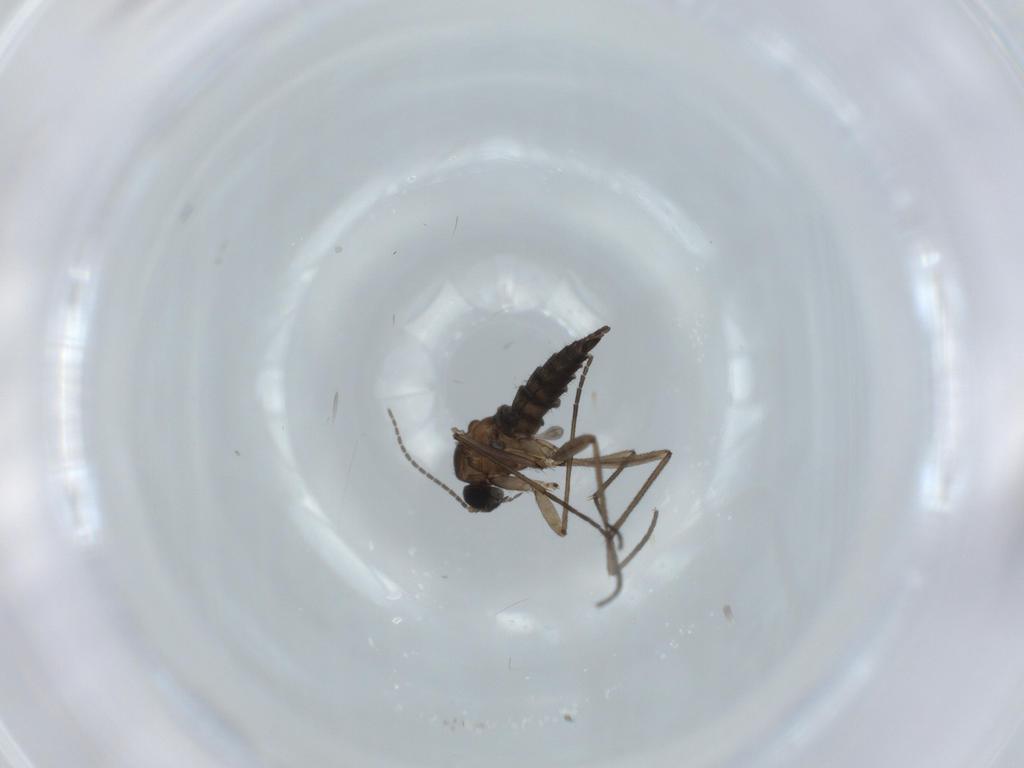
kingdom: Animalia
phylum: Arthropoda
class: Insecta
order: Diptera
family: Sciaridae
